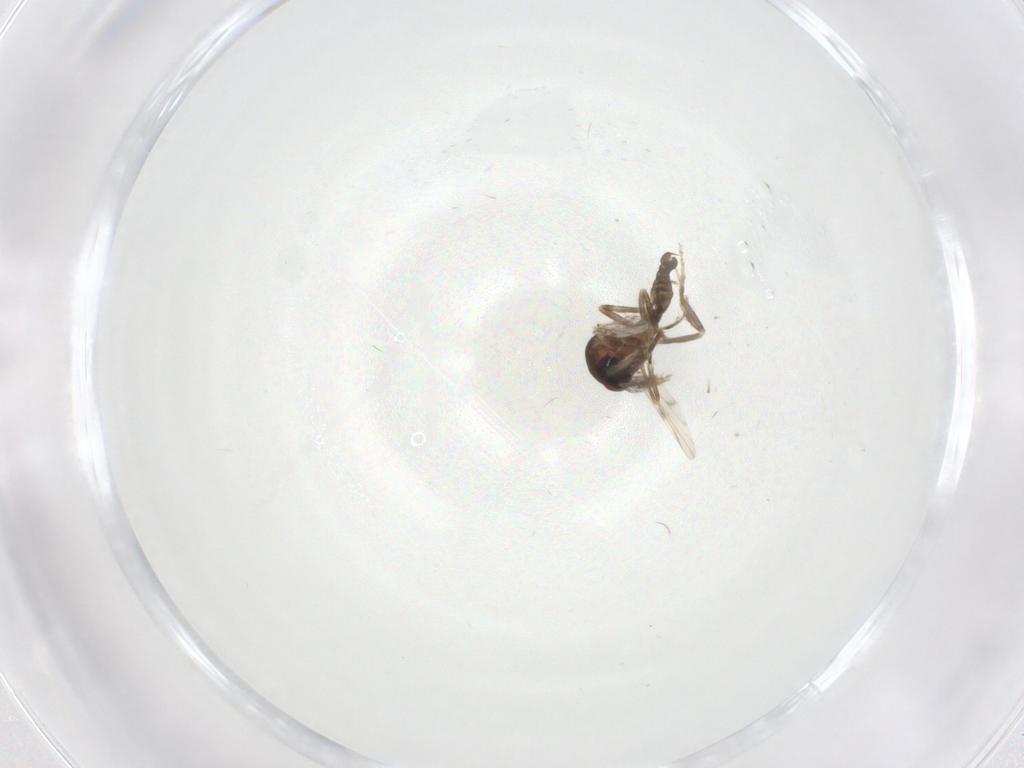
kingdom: Animalia
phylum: Arthropoda
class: Insecta
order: Diptera
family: Ceratopogonidae
